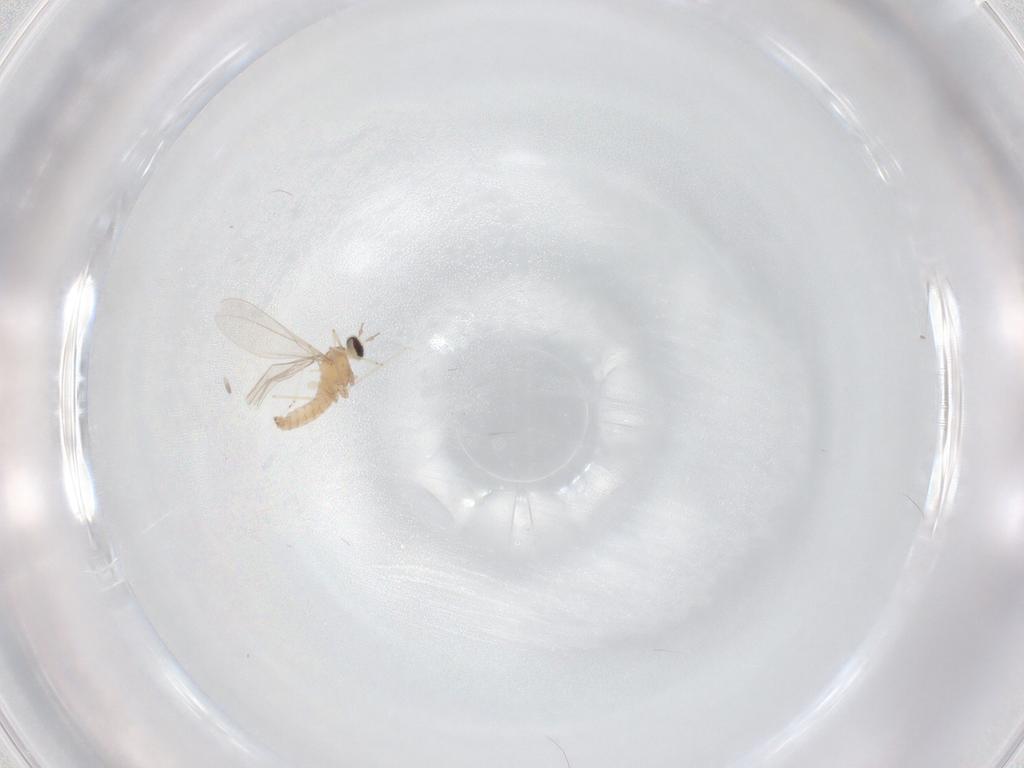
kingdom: Animalia
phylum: Arthropoda
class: Insecta
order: Diptera
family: Cecidomyiidae
